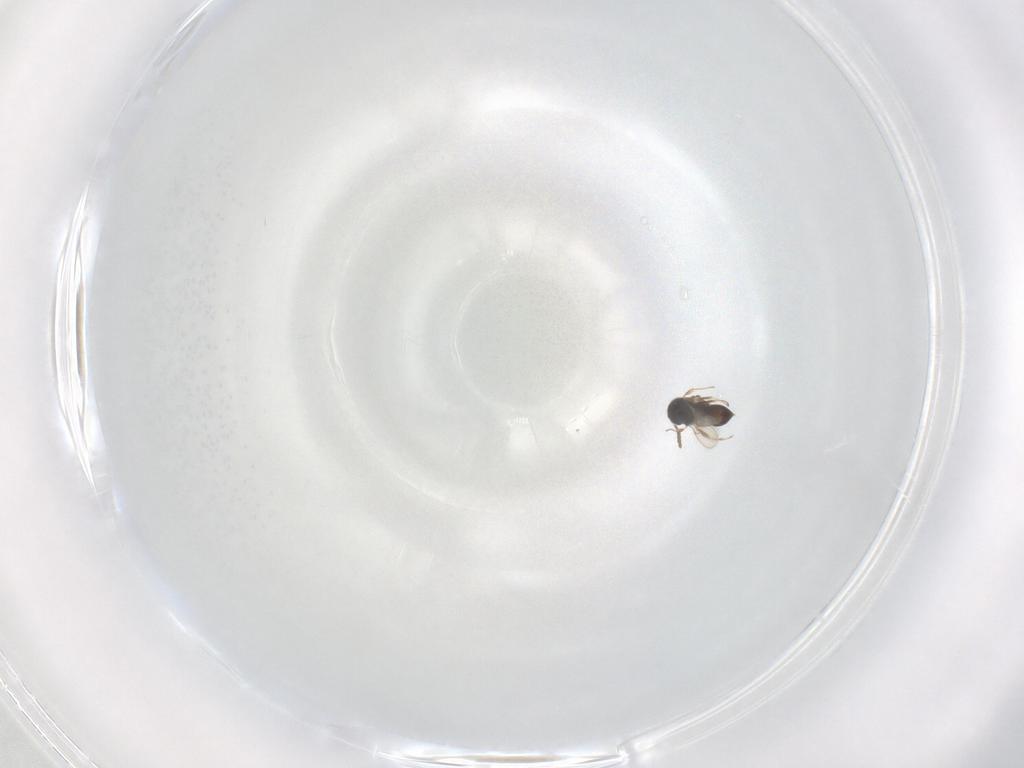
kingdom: Animalia
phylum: Arthropoda
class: Insecta
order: Hymenoptera
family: Scelionidae
